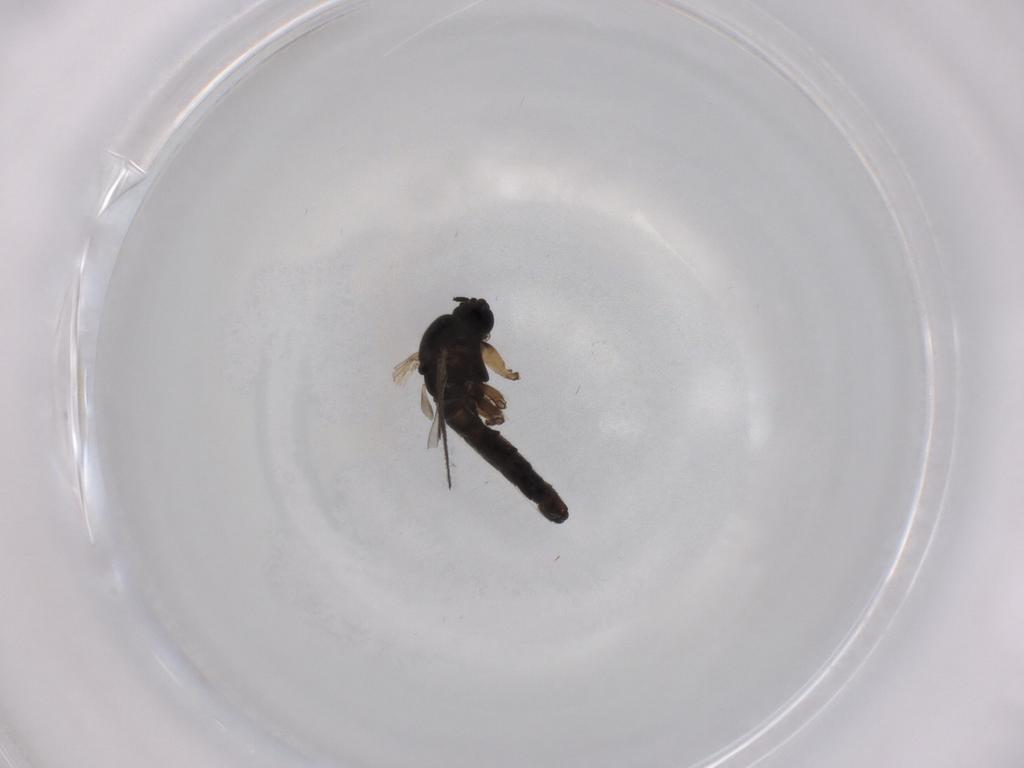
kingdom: Animalia
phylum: Arthropoda
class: Insecta
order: Diptera
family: Sciaridae
